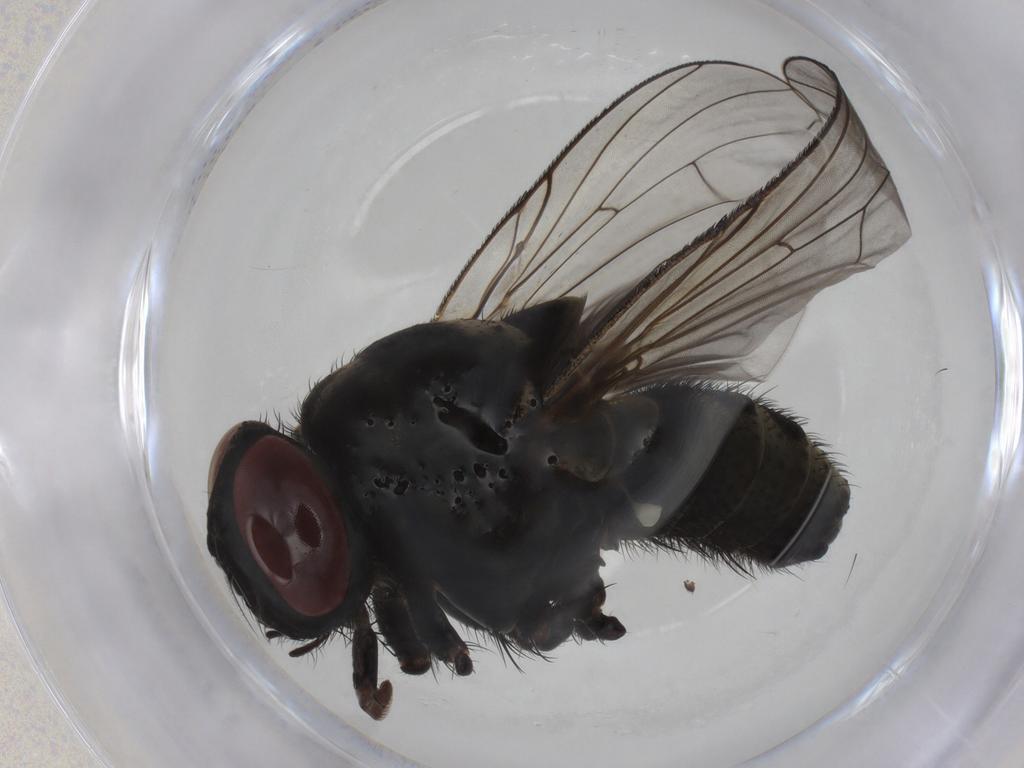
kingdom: Animalia
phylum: Arthropoda
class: Insecta
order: Diptera
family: Muscidae
